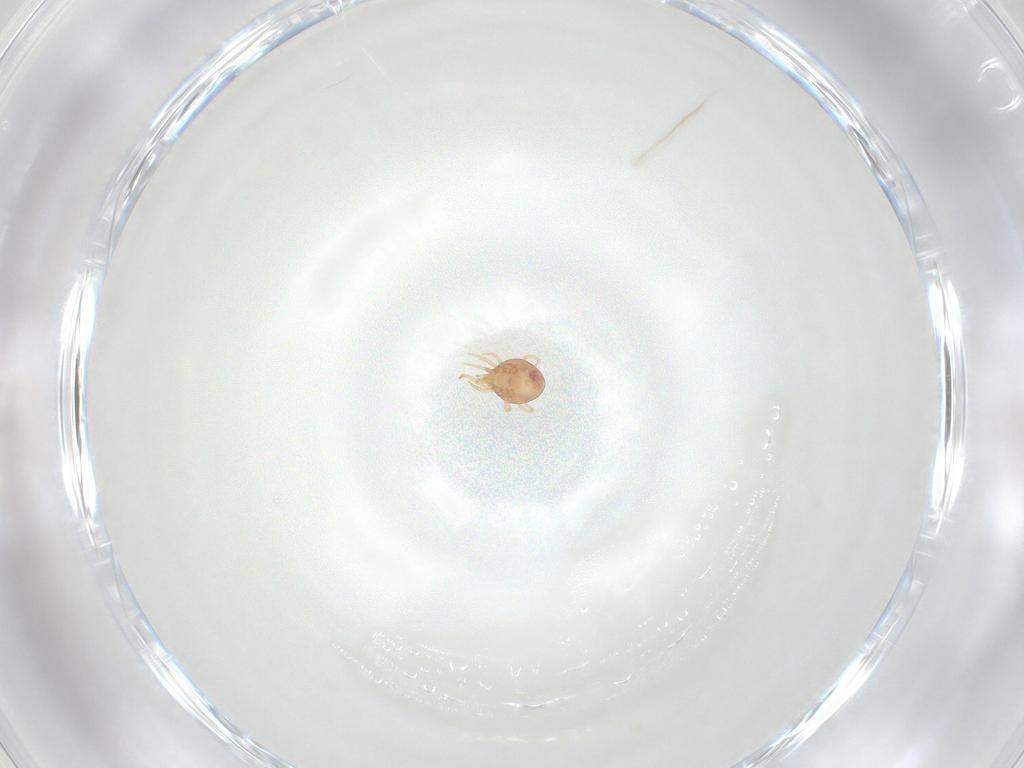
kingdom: Animalia
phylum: Arthropoda
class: Arachnida
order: Mesostigmata
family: Phytoseiidae
